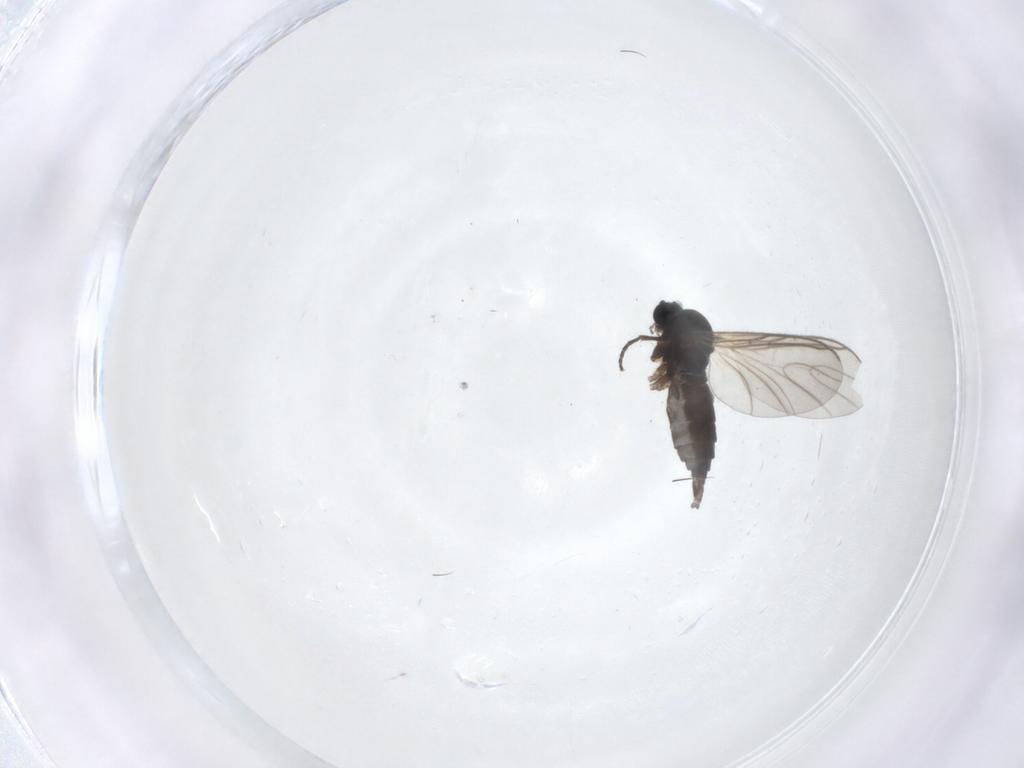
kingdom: Animalia
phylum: Arthropoda
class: Insecta
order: Diptera
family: Sciaridae
